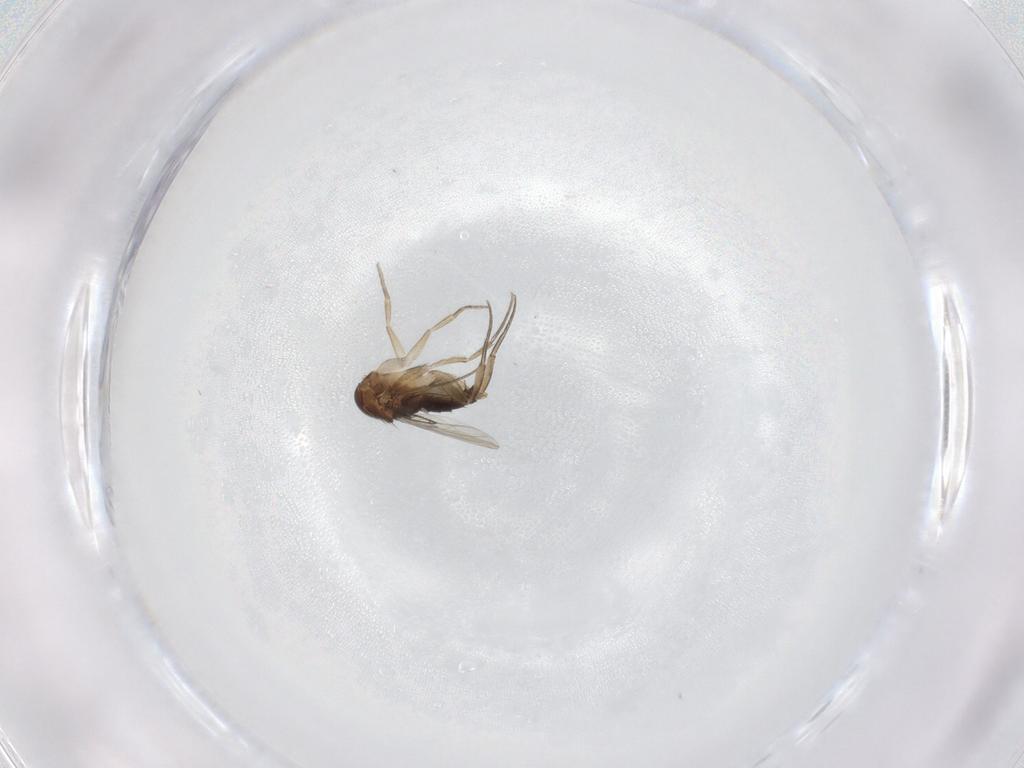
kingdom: Animalia
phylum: Arthropoda
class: Insecta
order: Diptera
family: Phoridae
